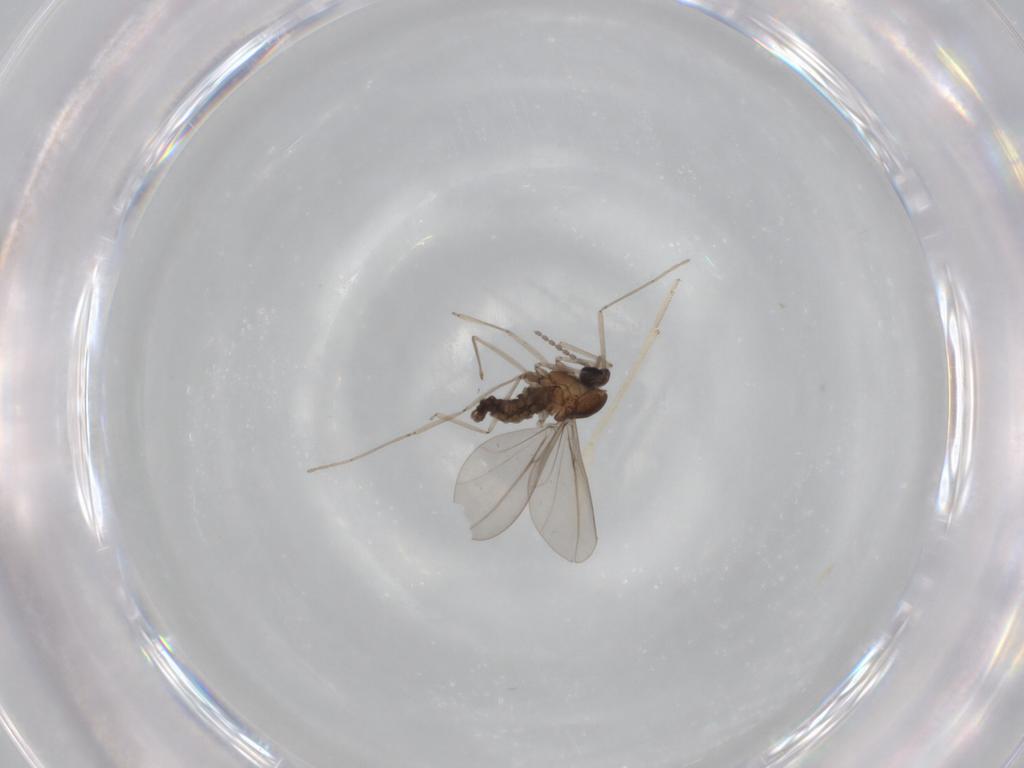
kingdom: Animalia
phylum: Arthropoda
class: Insecta
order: Diptera
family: Cecidomyiidae
